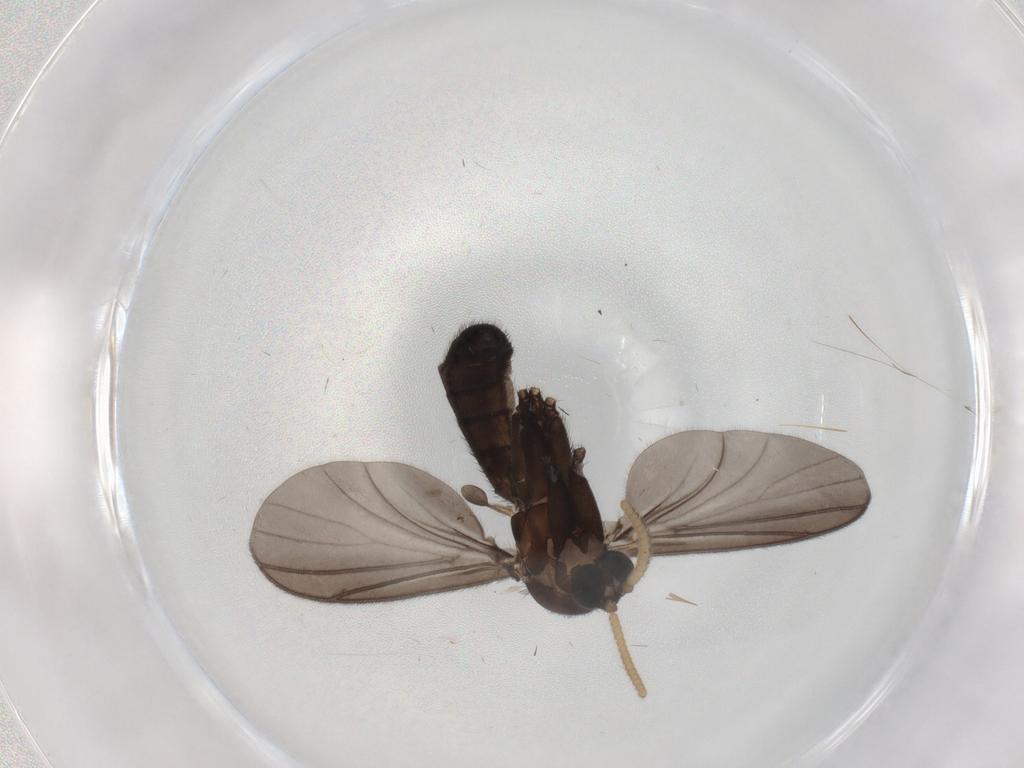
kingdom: Animalia
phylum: Arthropoda
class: Insecta
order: Diptera
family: Phoridae
